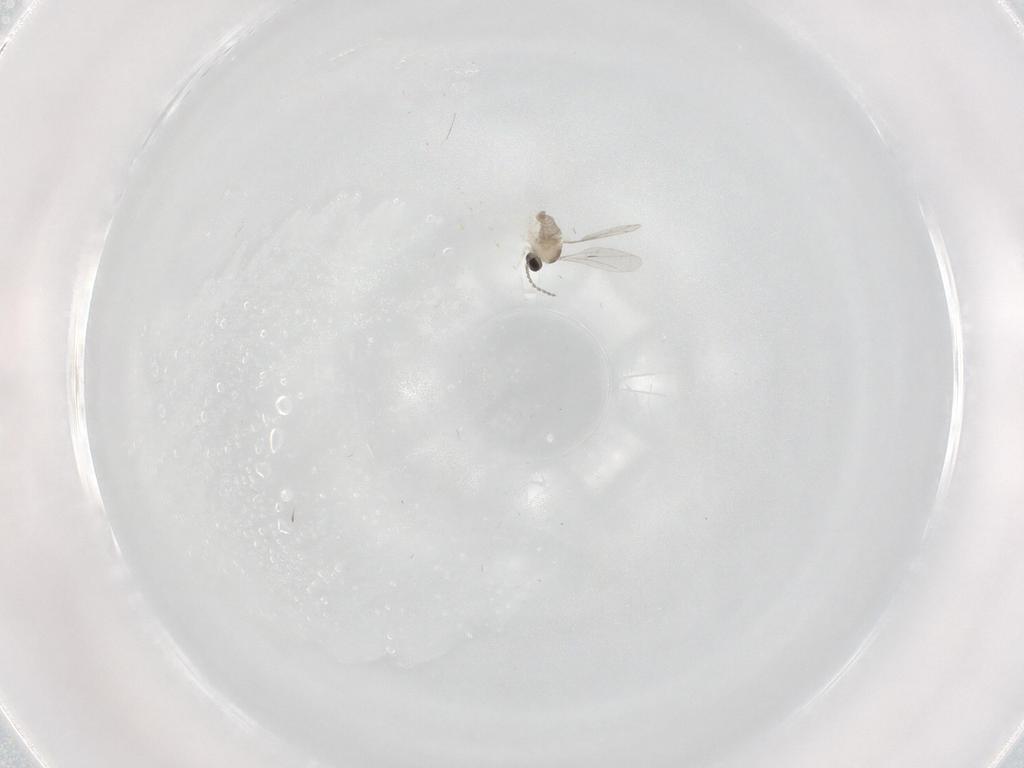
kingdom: Animalia
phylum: Arthropoda
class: Insecta
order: Diptera
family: Cecidomyiidae
